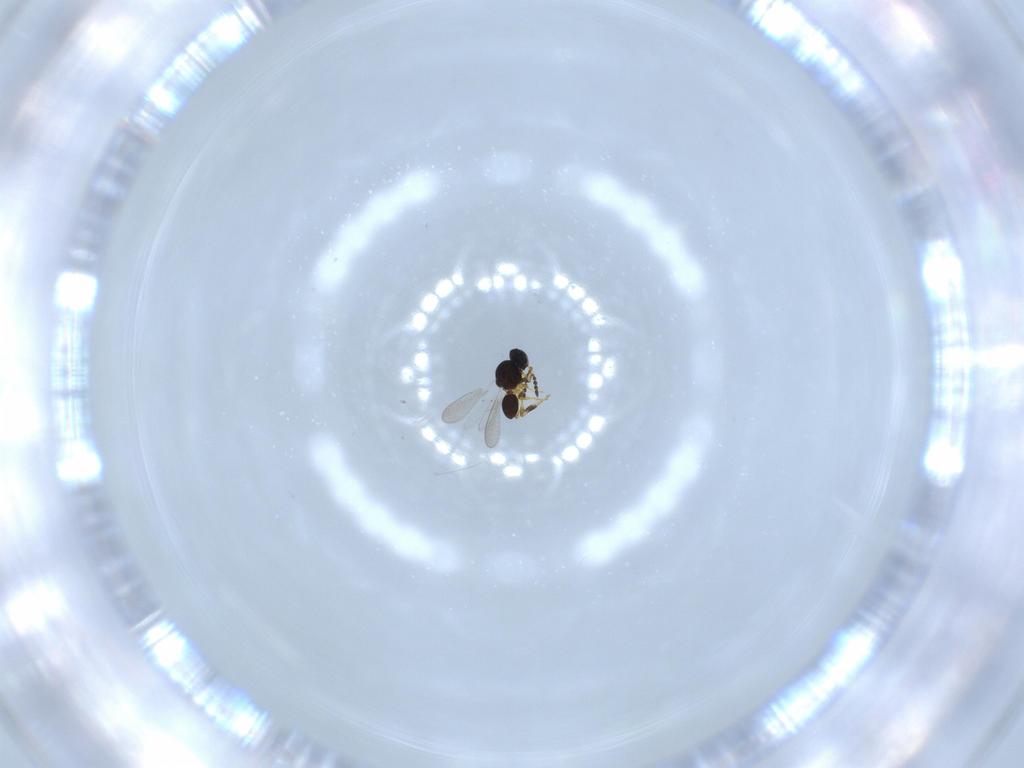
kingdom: Animalia
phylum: Arthropoda
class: Insecta
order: Hymenoptera
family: Platygastridae
